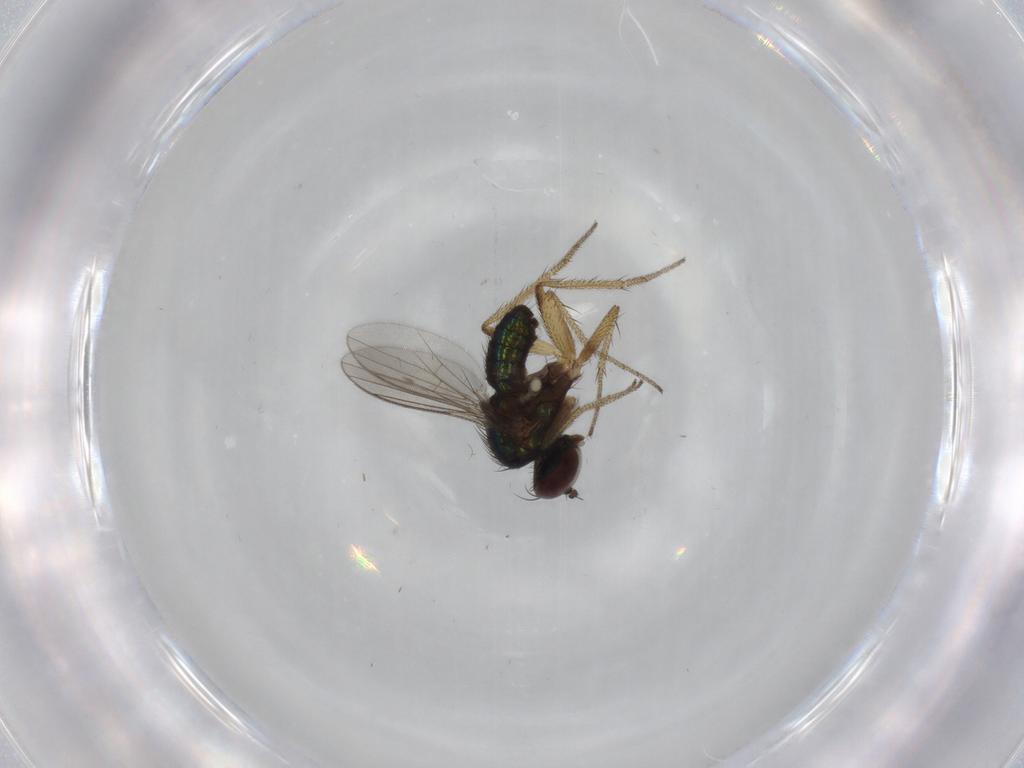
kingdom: Animalia
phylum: Arthropoda
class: Insecta
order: Diptera
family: Dolichopodidae
